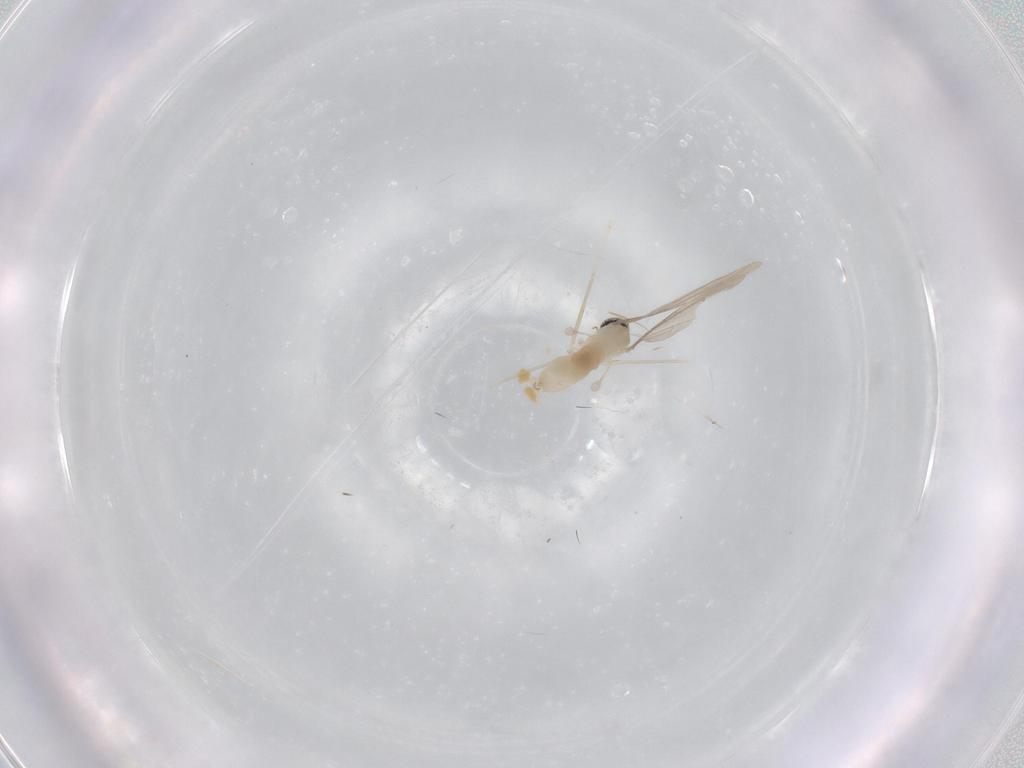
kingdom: Animalia
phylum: Arthropoda
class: Insecta
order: Diptera
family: Cecidomyiidae
